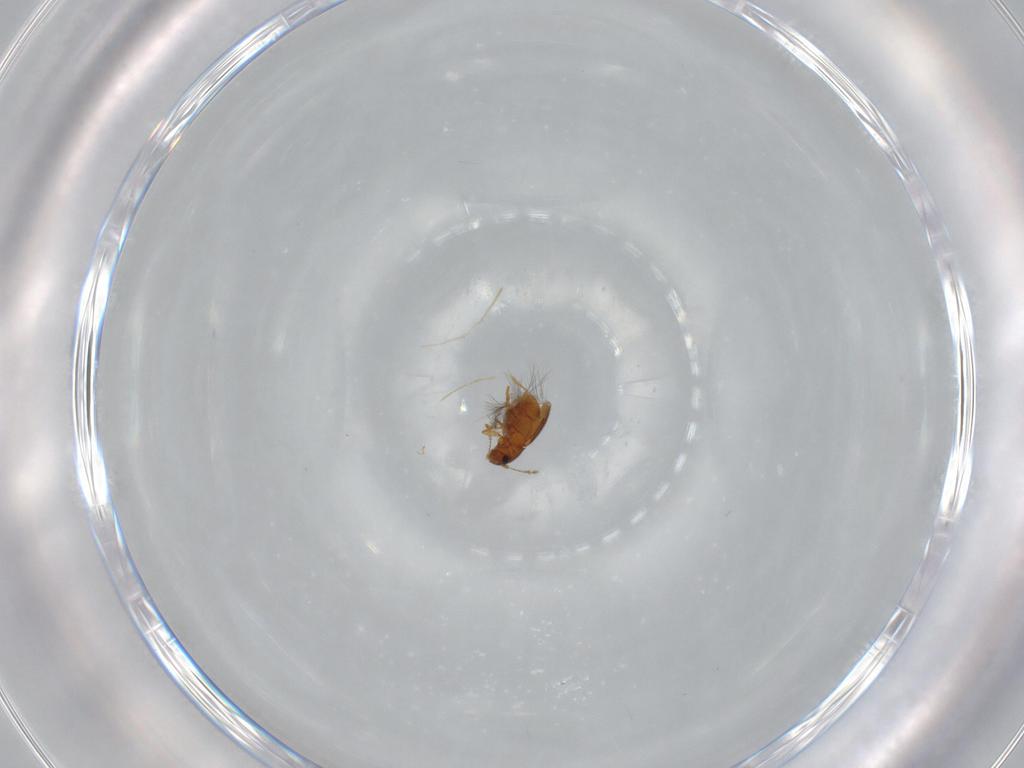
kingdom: Animalia
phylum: Arthropoda
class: Insecta
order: Coleoptera
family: Ptiliidae
